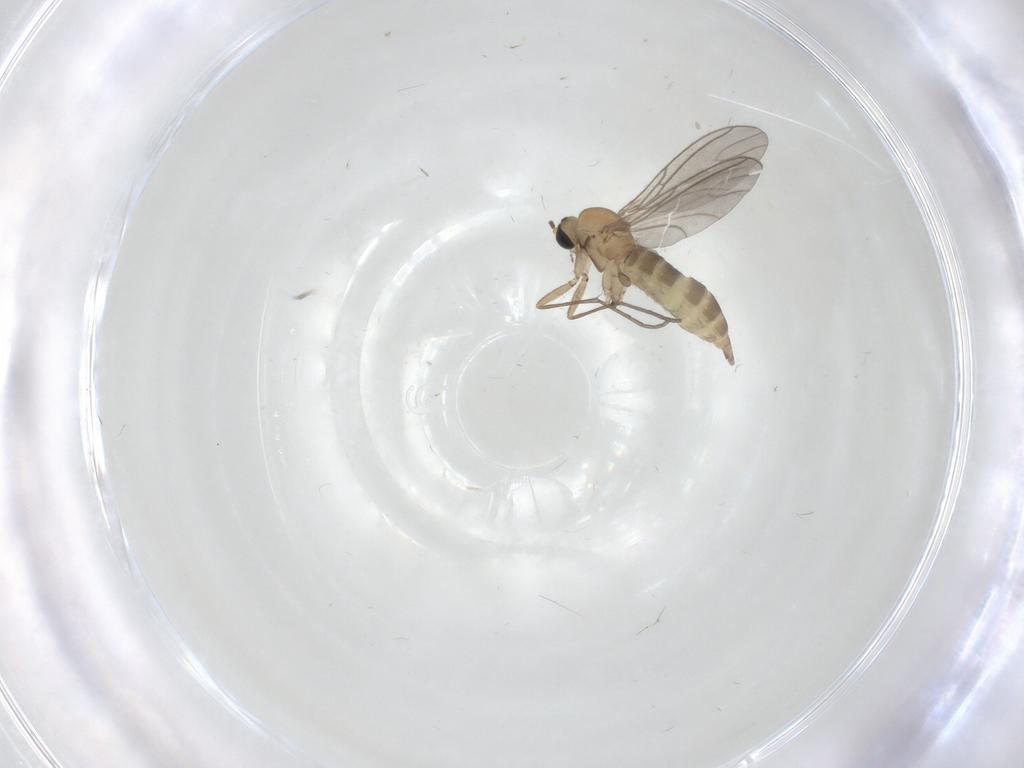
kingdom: Animalia
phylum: Arthropoda
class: Insecta
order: Diptera
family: Sciaridae
